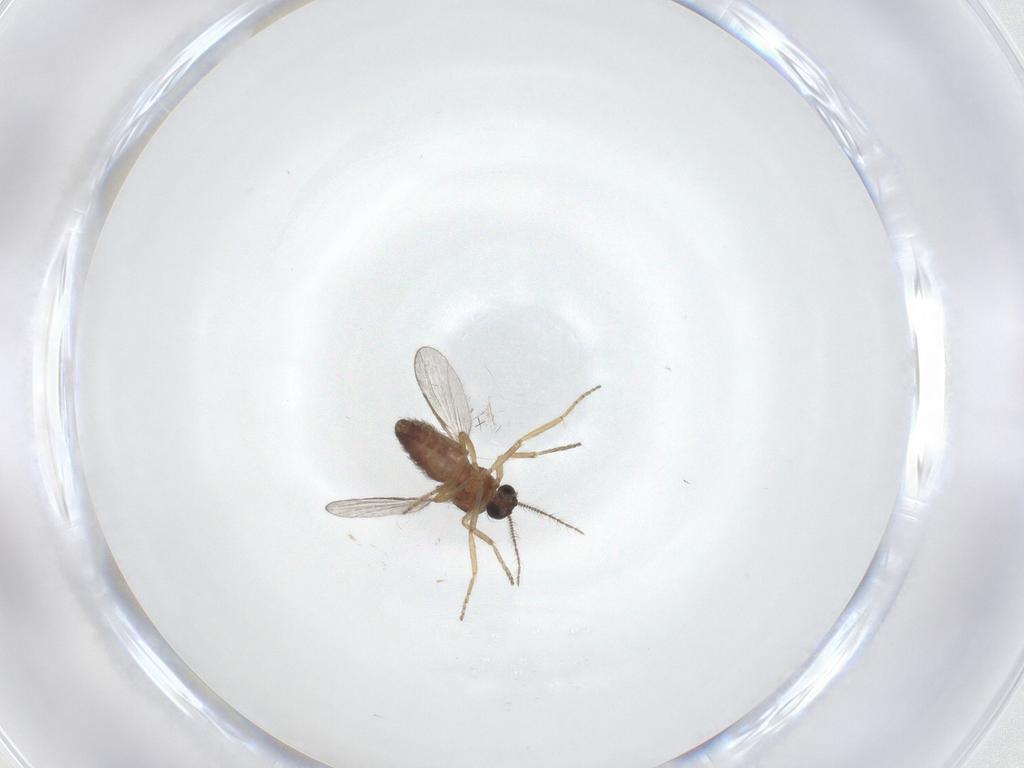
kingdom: Animalia
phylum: Arthropoda
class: Insecta
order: Diptera
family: Ceratopogonidae
